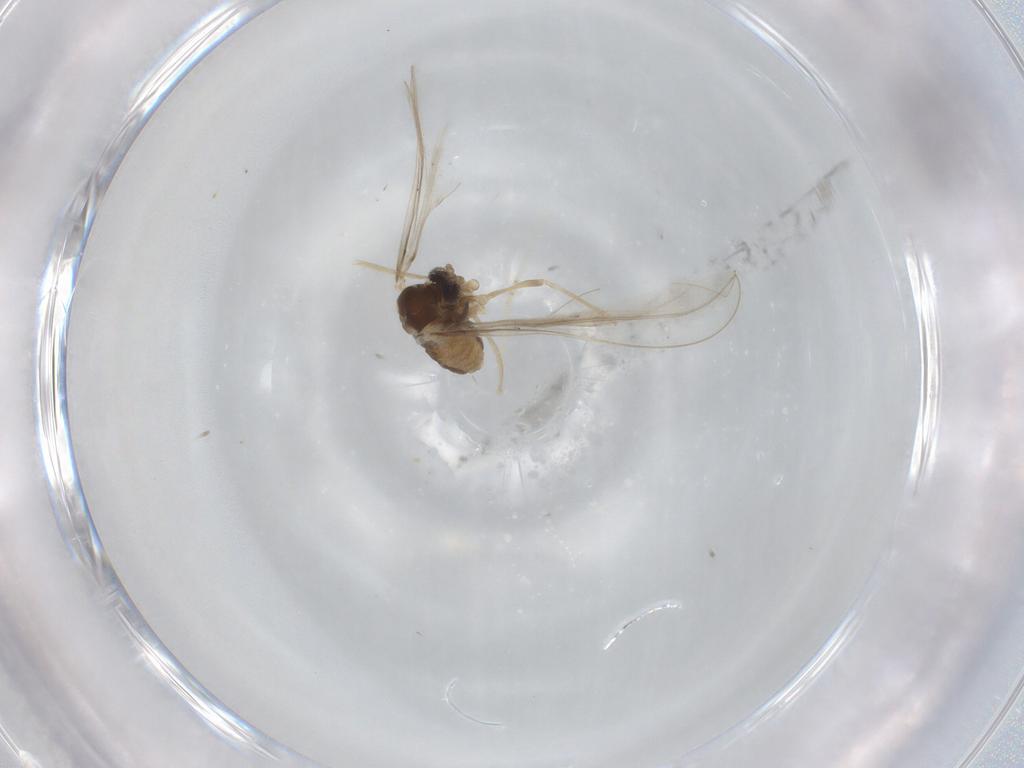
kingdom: Animalia
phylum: Arthropoda
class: Insecta
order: Diptera
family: Cecidomyiidae
